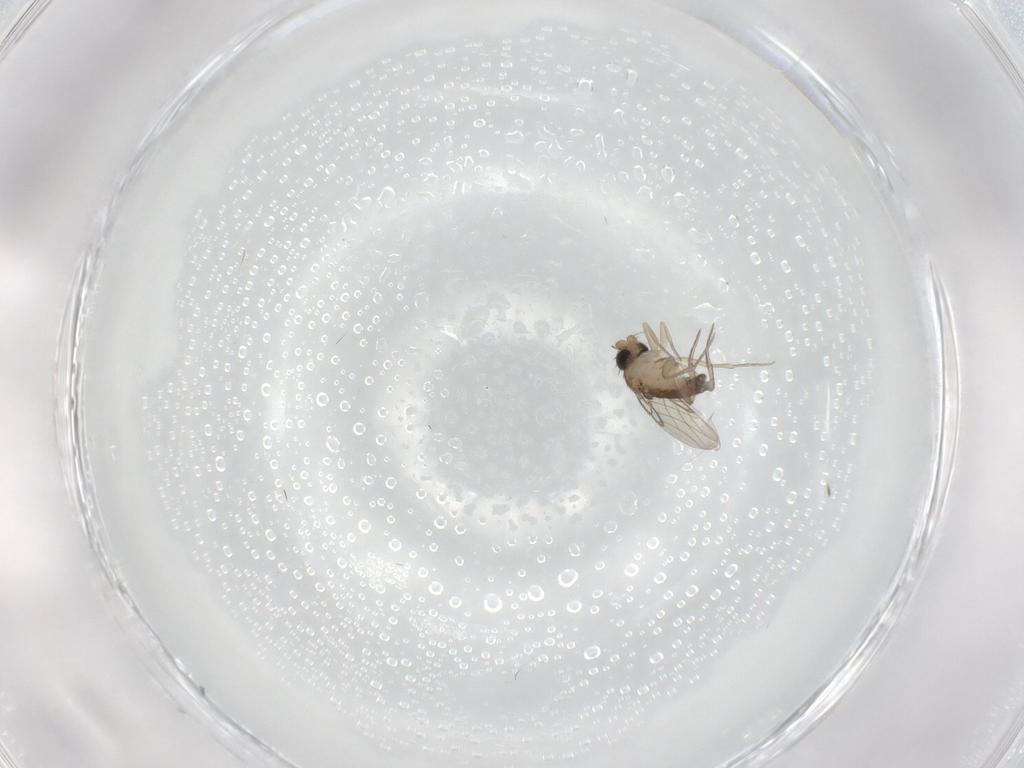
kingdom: Animalia
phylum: Arthropoda
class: Insecta
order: Diptera
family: Phoridae
